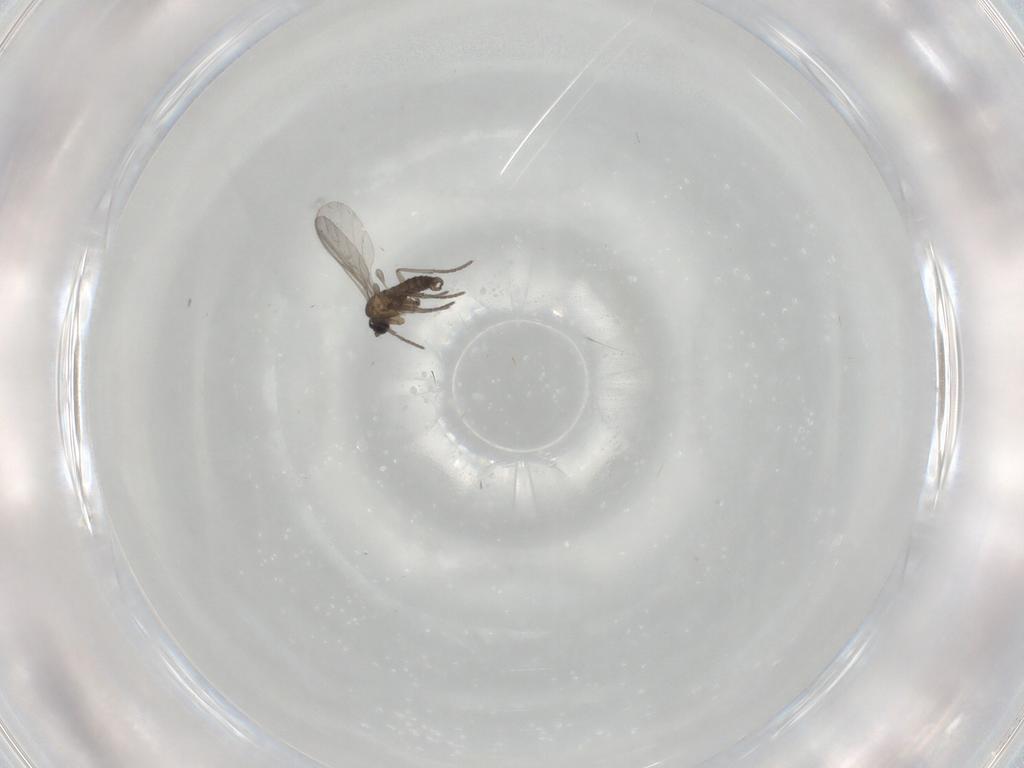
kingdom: Animalia
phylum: Arthropoda
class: Insecta
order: Diptera
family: Sciaridae
